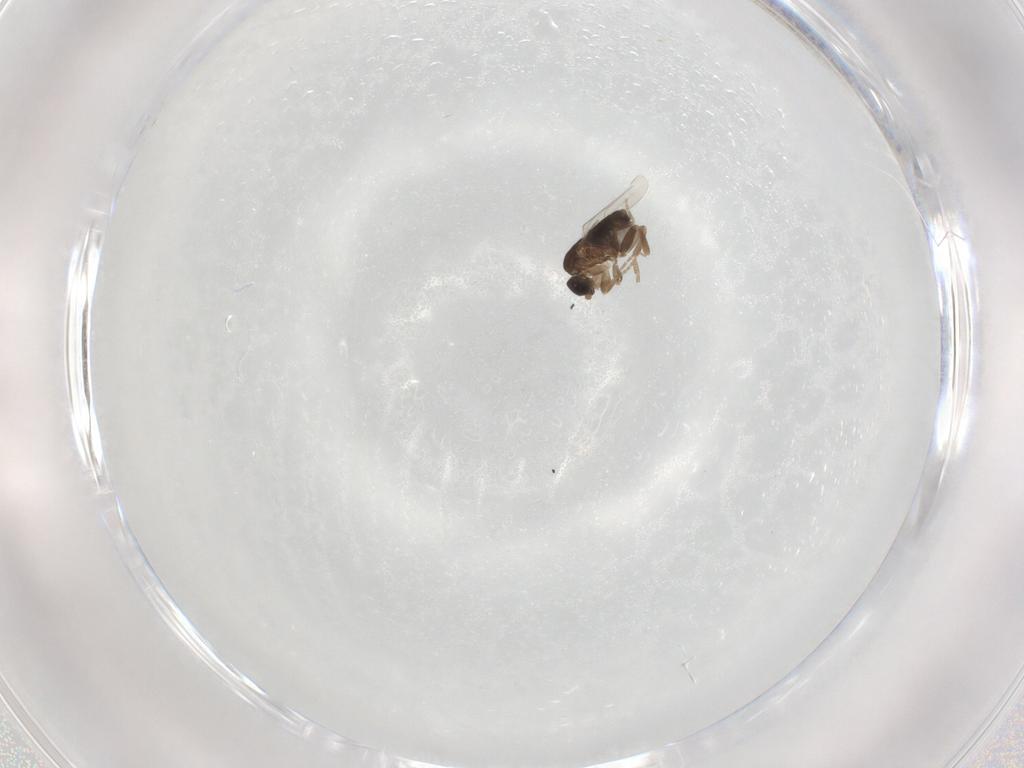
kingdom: Animalia
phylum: Arthropoda
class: Insecta
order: Diptera
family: Phoridae
